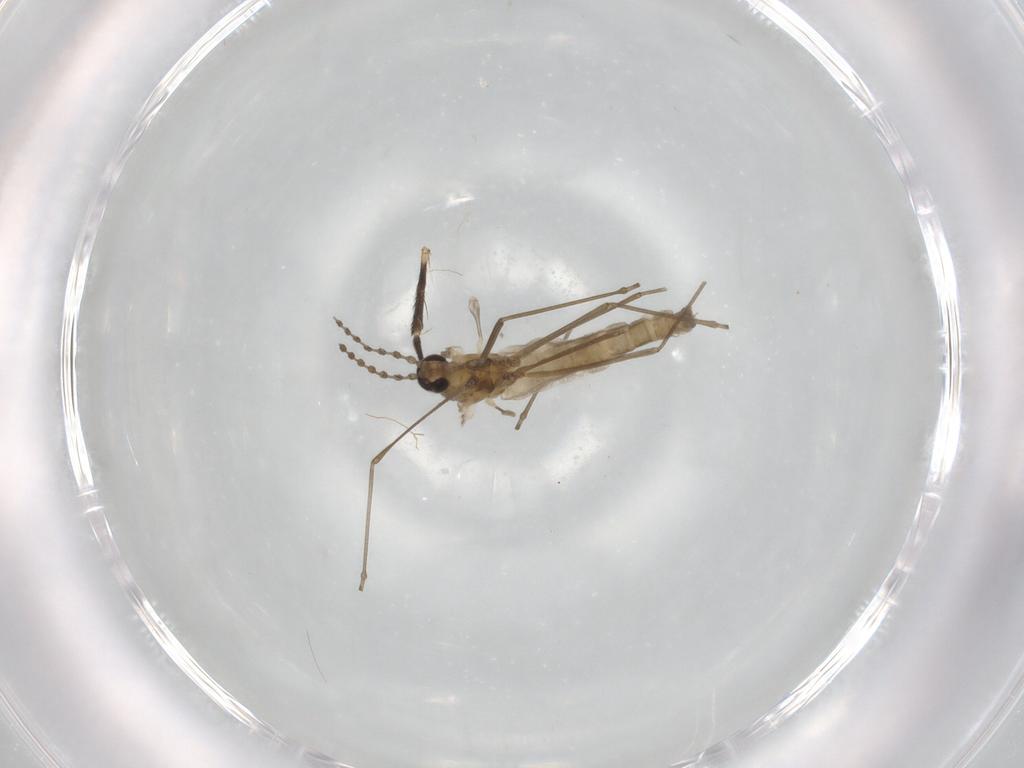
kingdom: Animalia
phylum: Arthropoda
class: Insecta
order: Diptera
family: Cecidomyiidae
